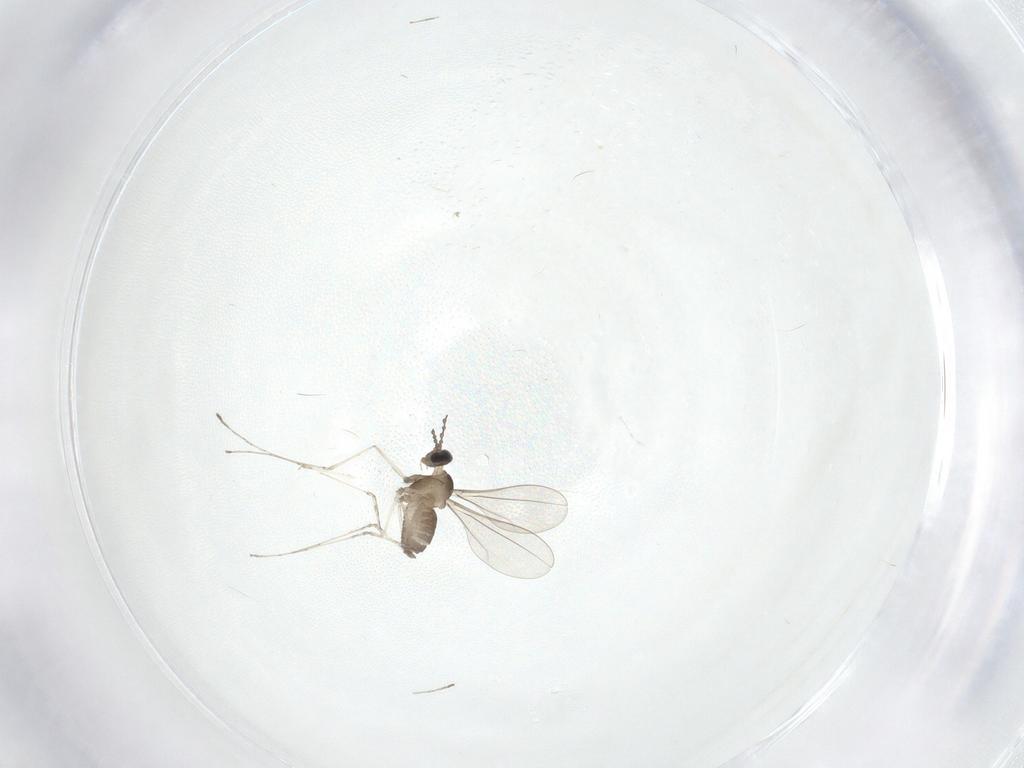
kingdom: Animalia
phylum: Arthropoda
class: Insecta
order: Diptera
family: Cecidomyiidae
